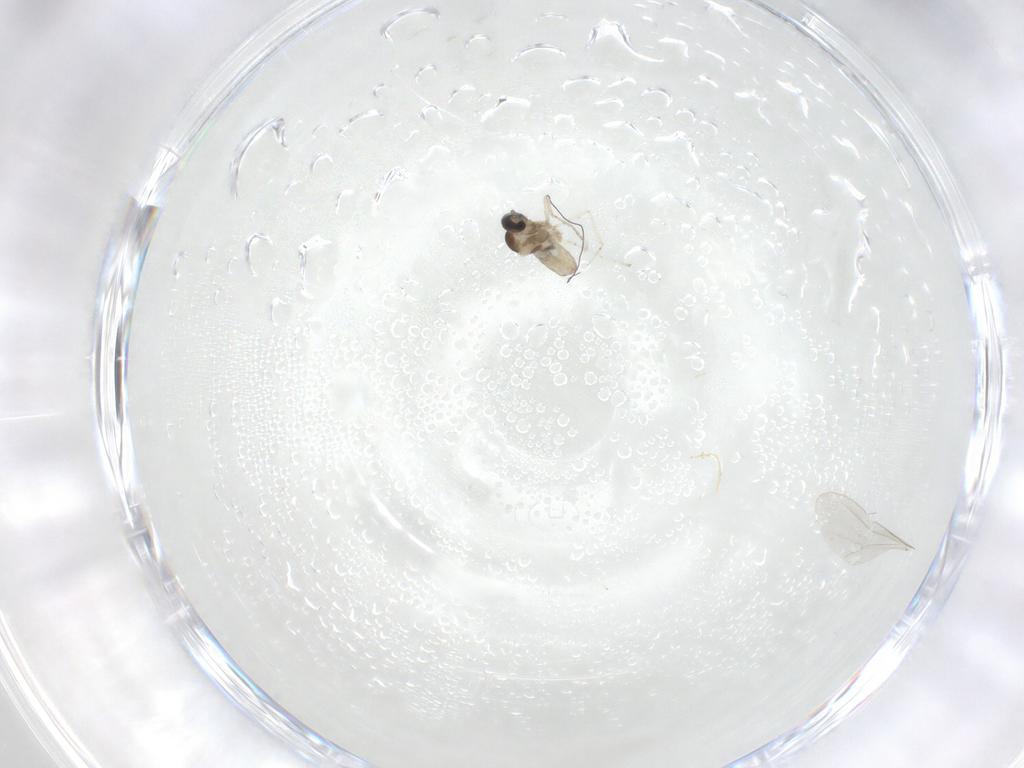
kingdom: Animalia
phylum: Arthropoda
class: Insecta
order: Diptera
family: Cecidomyiidae
